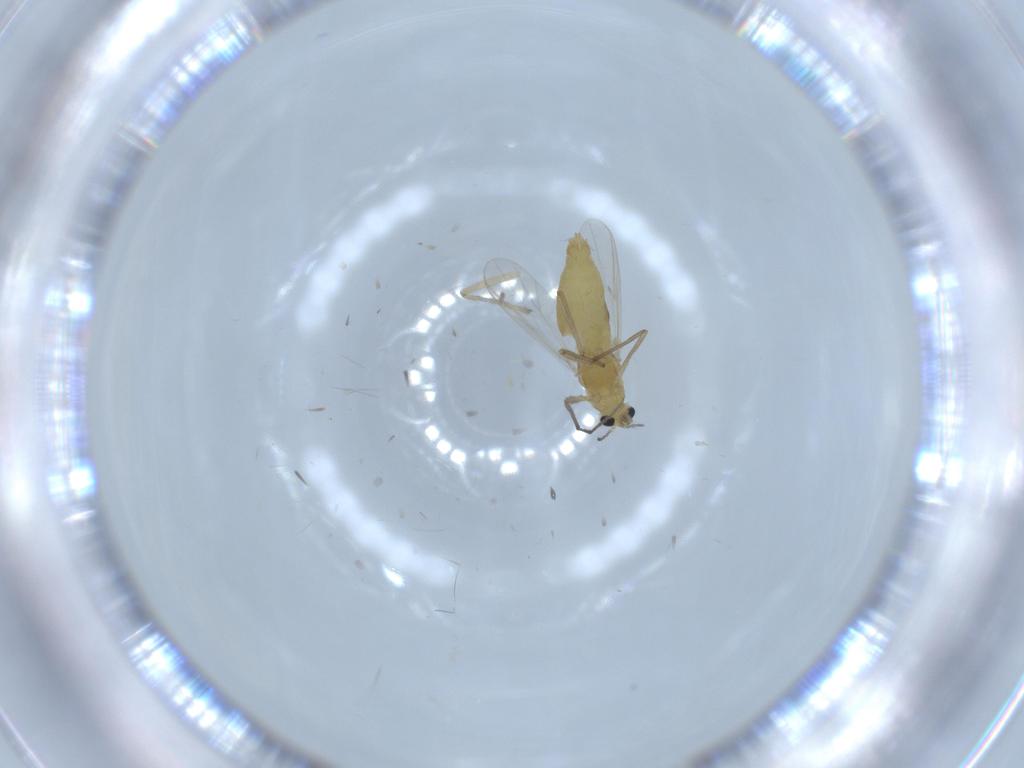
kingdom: Animalia
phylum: Arthropoda
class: Insecta
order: Diptera
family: Chironomidae
